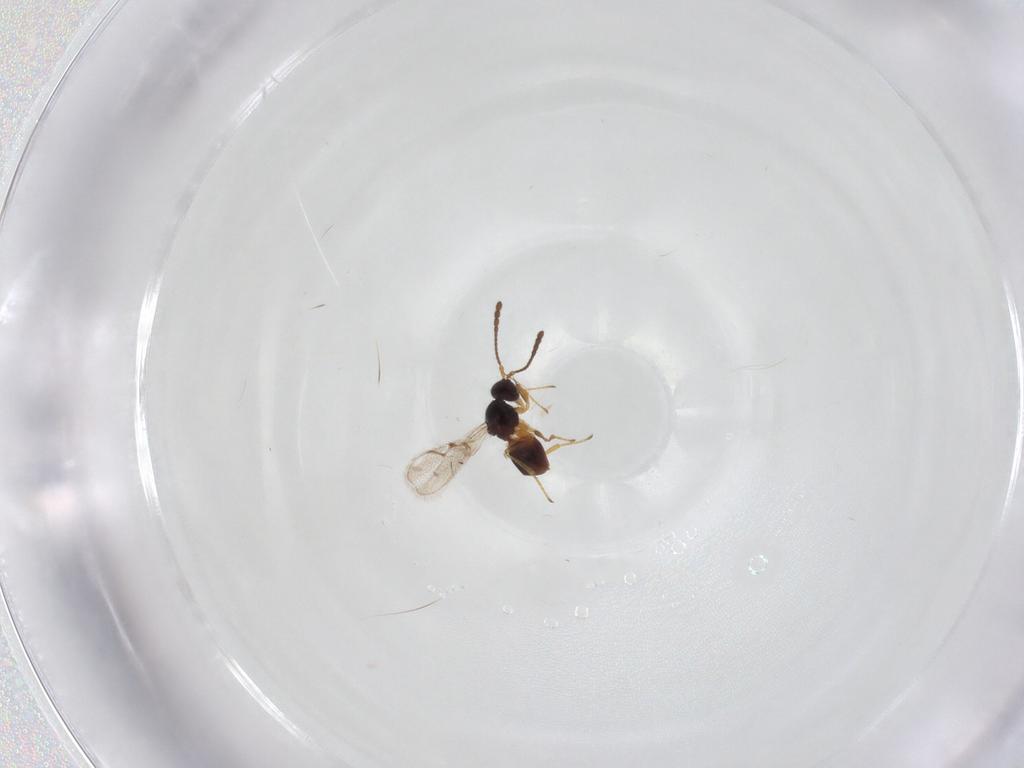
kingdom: Animalia
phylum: Arthropoda
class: Insecta
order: Hymenoptera
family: Figitidae
